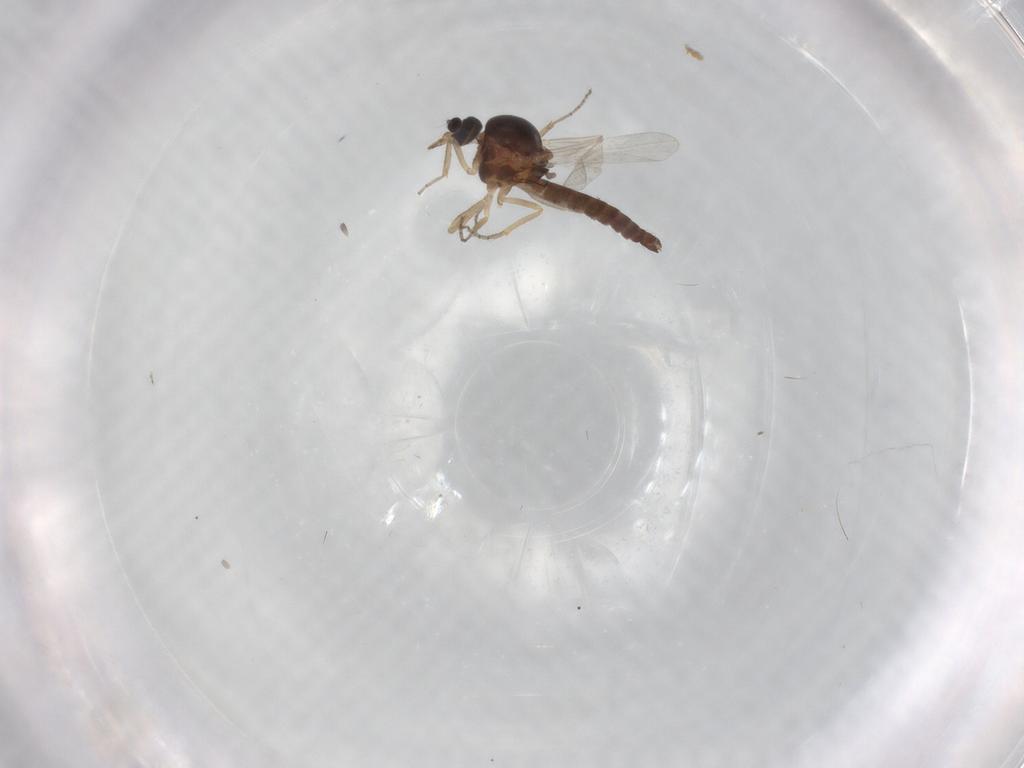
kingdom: Animalia
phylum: Arthropoda
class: Insecta
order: Diptera
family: Ceratopogonidae
